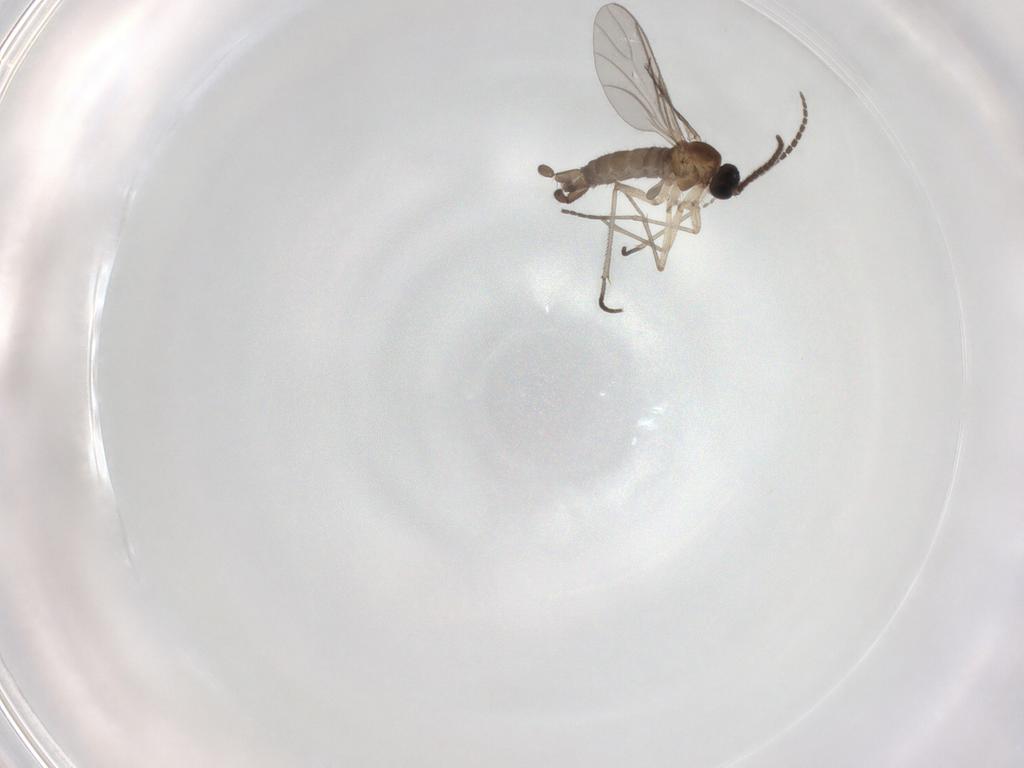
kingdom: Animalia
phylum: Arthropoda
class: Insecta
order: Diptera
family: Sciaridae
